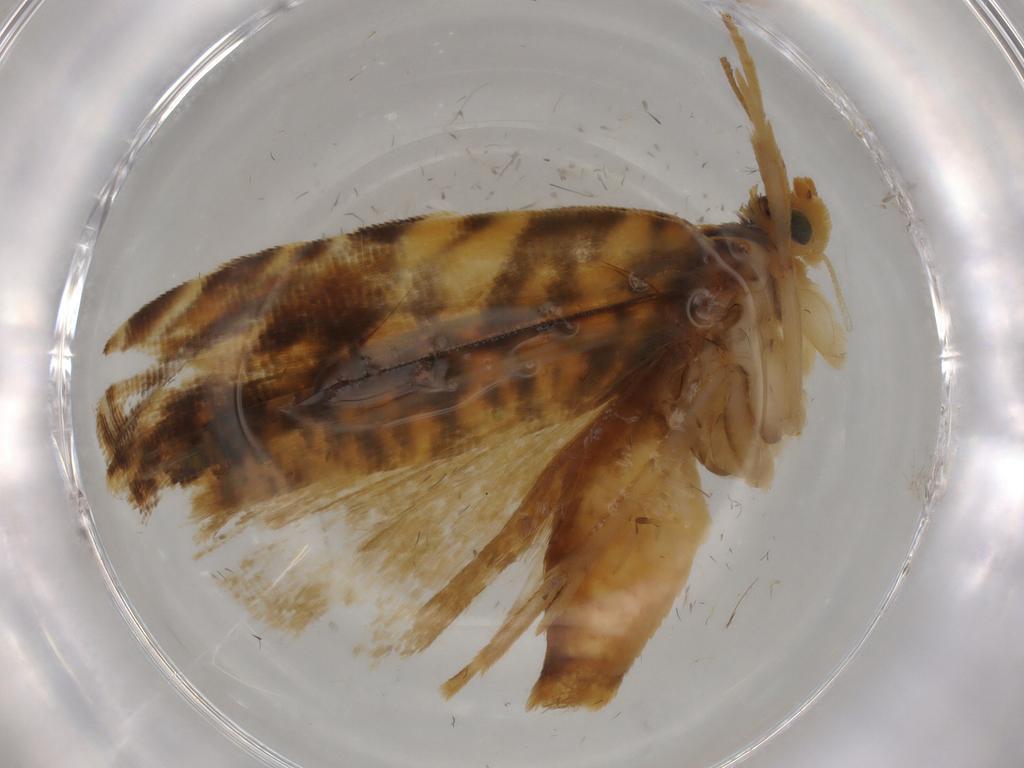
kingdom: Animalia
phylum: Arthropoda
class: Insecta
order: Lepidoptera
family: Tortricidae
